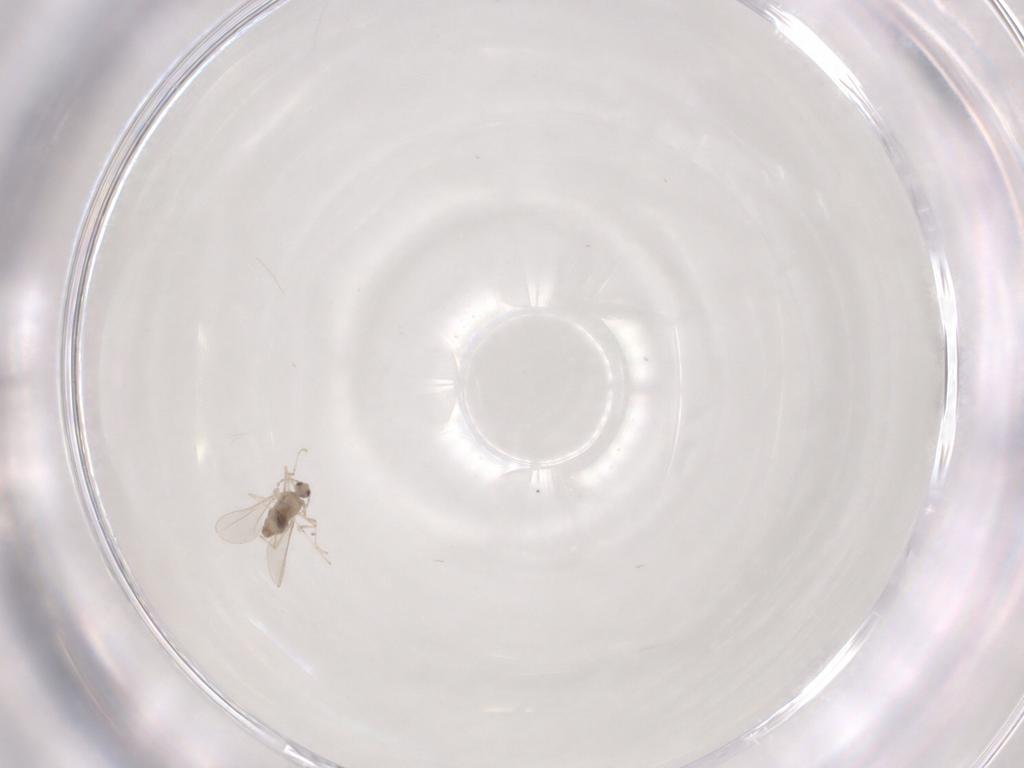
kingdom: Animalia
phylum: Arthropoda
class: Insecta
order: Diptera
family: Cecidomyiidae
